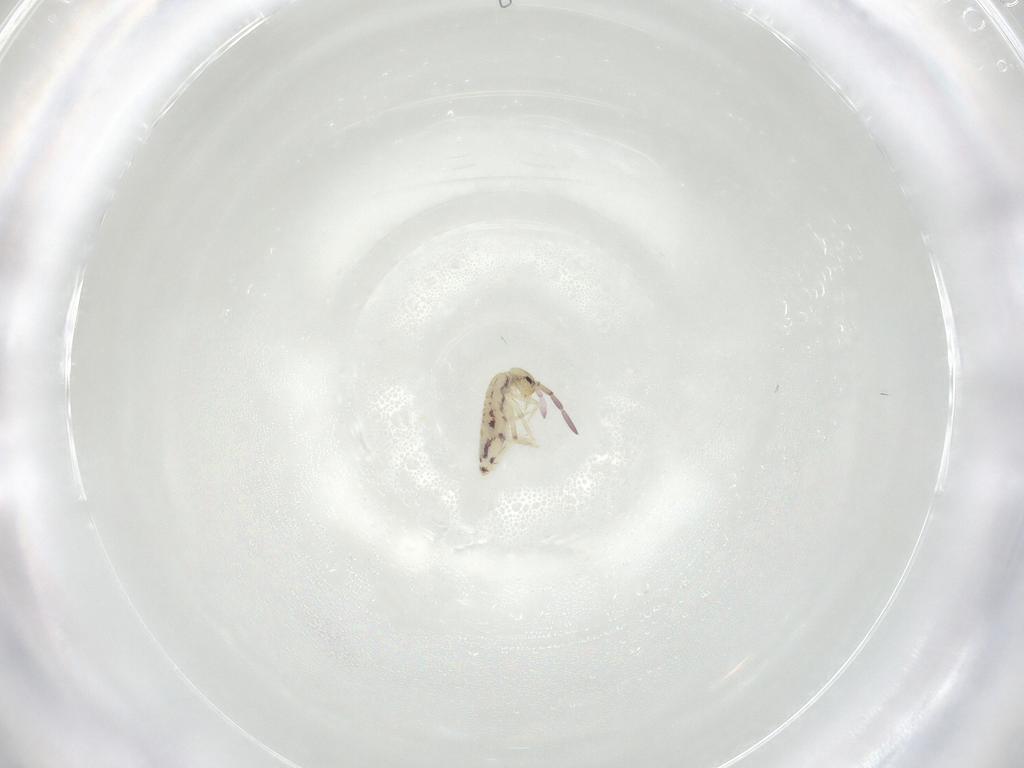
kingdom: Animalia
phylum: Arthropoda
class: Collembola
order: Entomobryomorpha
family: Entomobryidae
